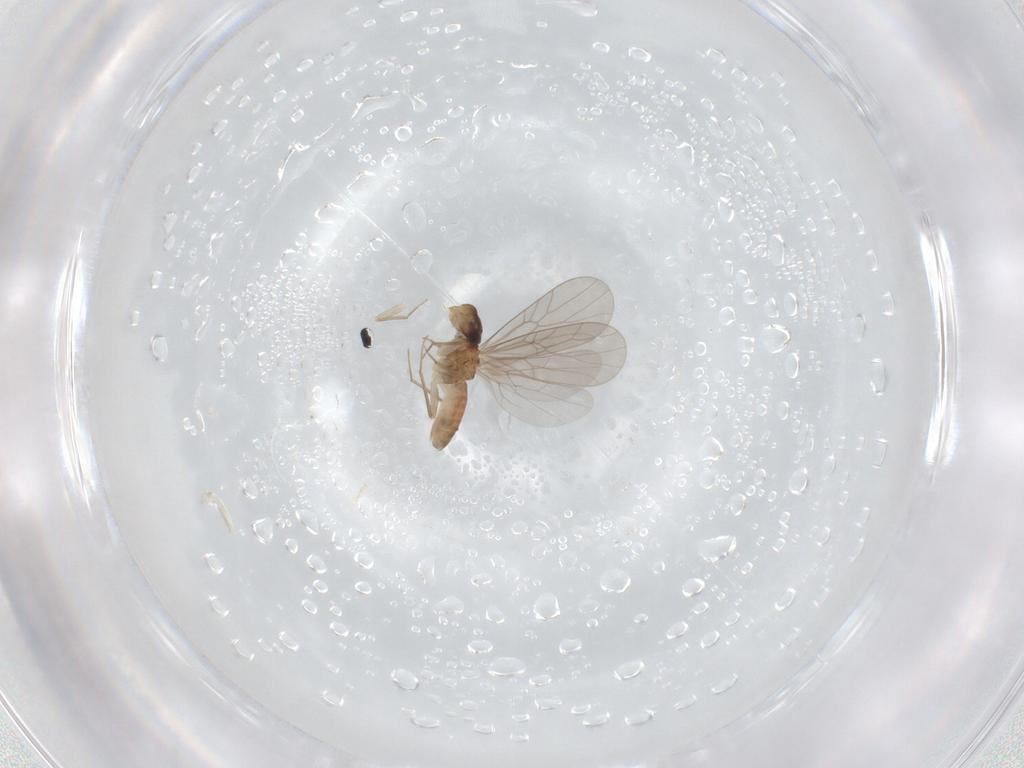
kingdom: Animalia
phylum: Arthropoda
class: Insecta
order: Psocodea
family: Lepidopsocidae
